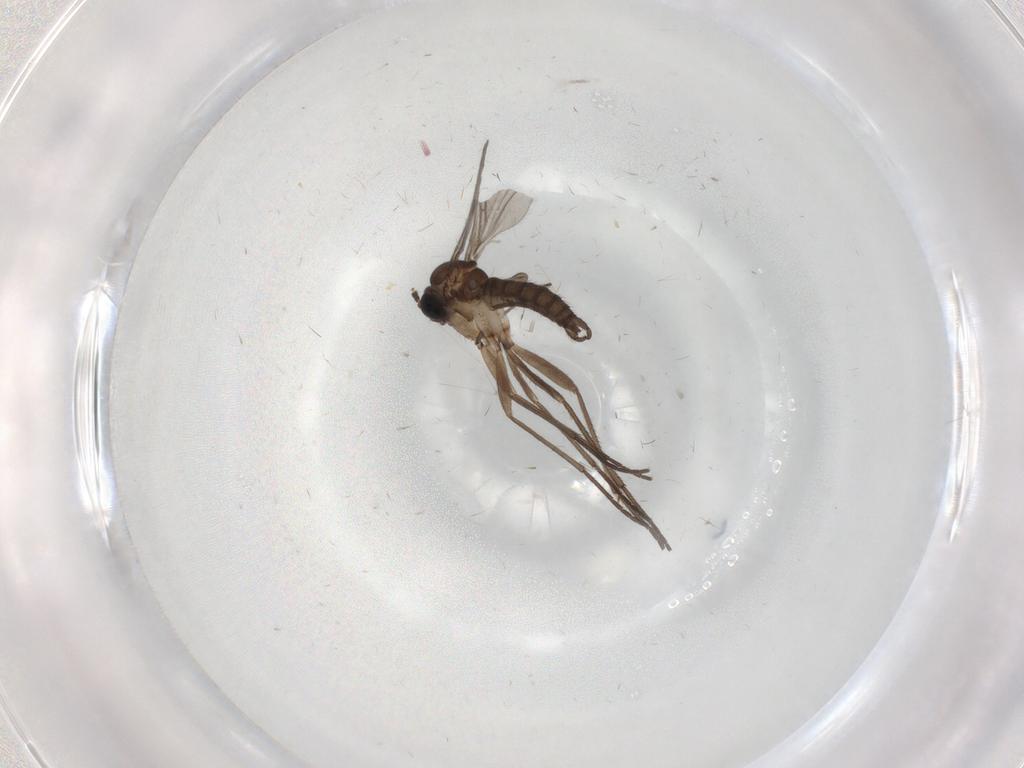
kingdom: Animalia
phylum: Arthropoda
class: Insecta
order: Diptera
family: Sciaridae
